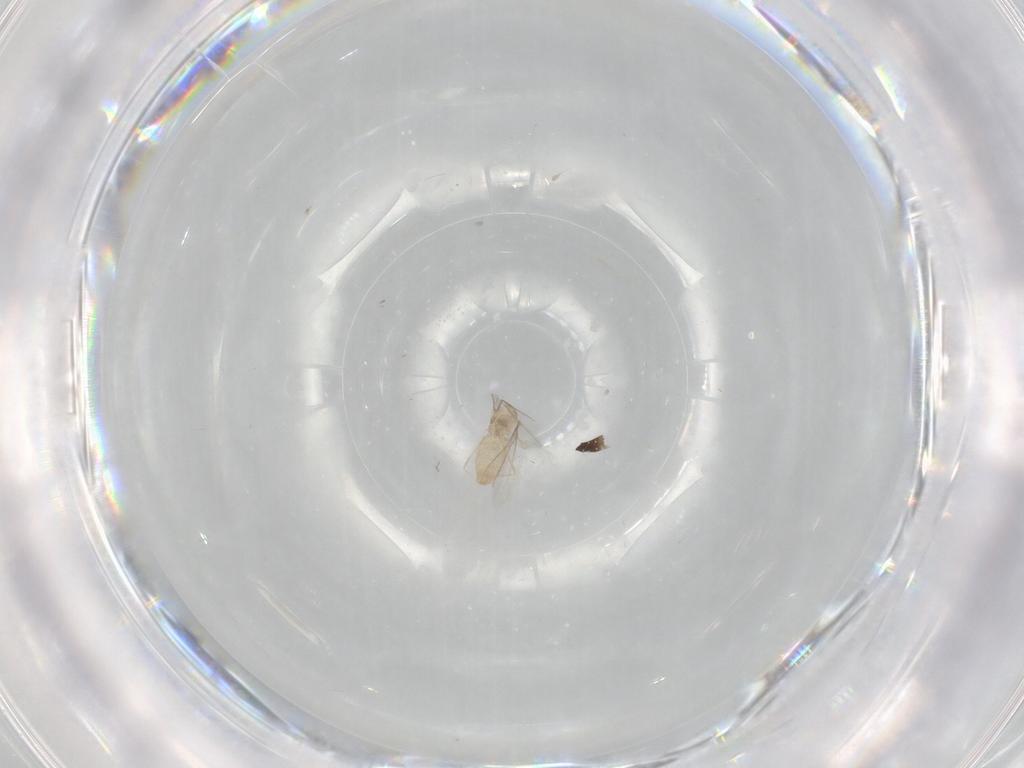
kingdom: Animalia
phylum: Arthropoda
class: Insecta
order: Diptera
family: Cecidomyiidae
